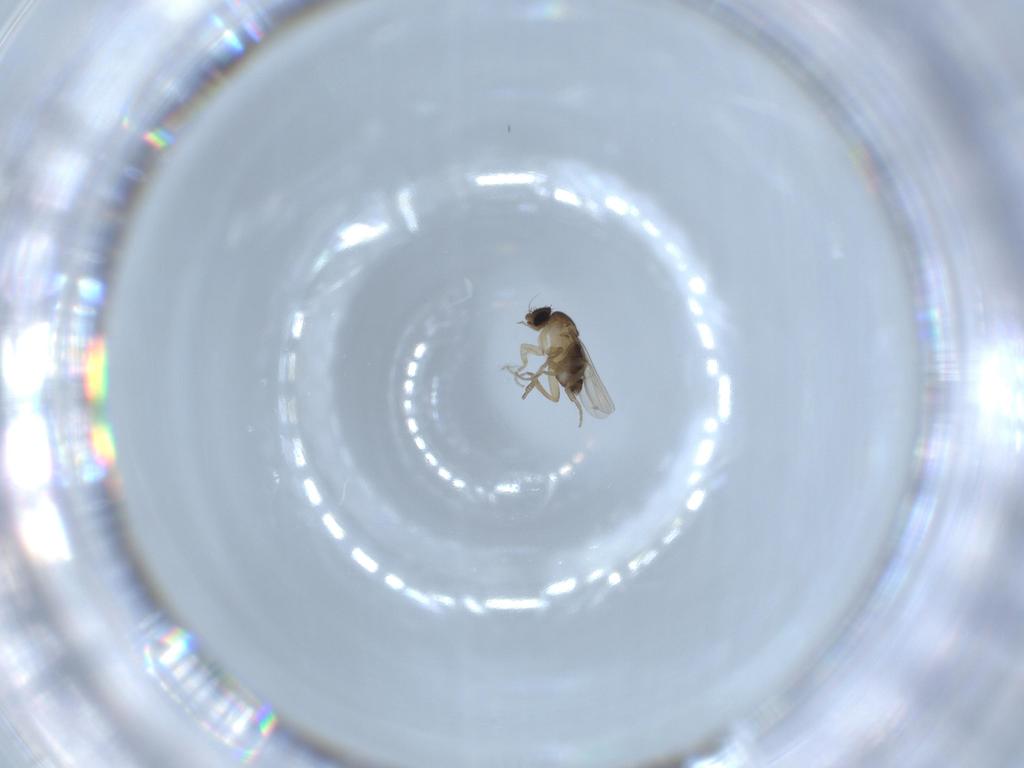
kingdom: Animalia
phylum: Arthropoda
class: Insecta
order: Diptera
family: Phoridae
